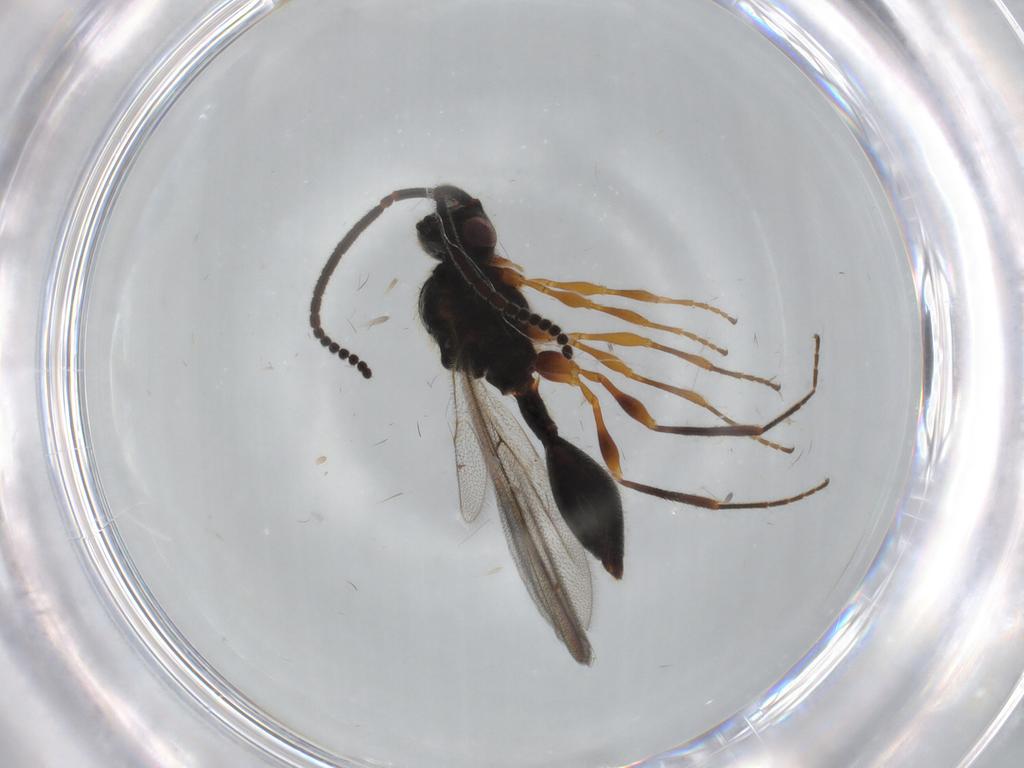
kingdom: Animalia
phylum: Arthropoda
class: Insecta
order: Hymenoptera
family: Diapriidae
